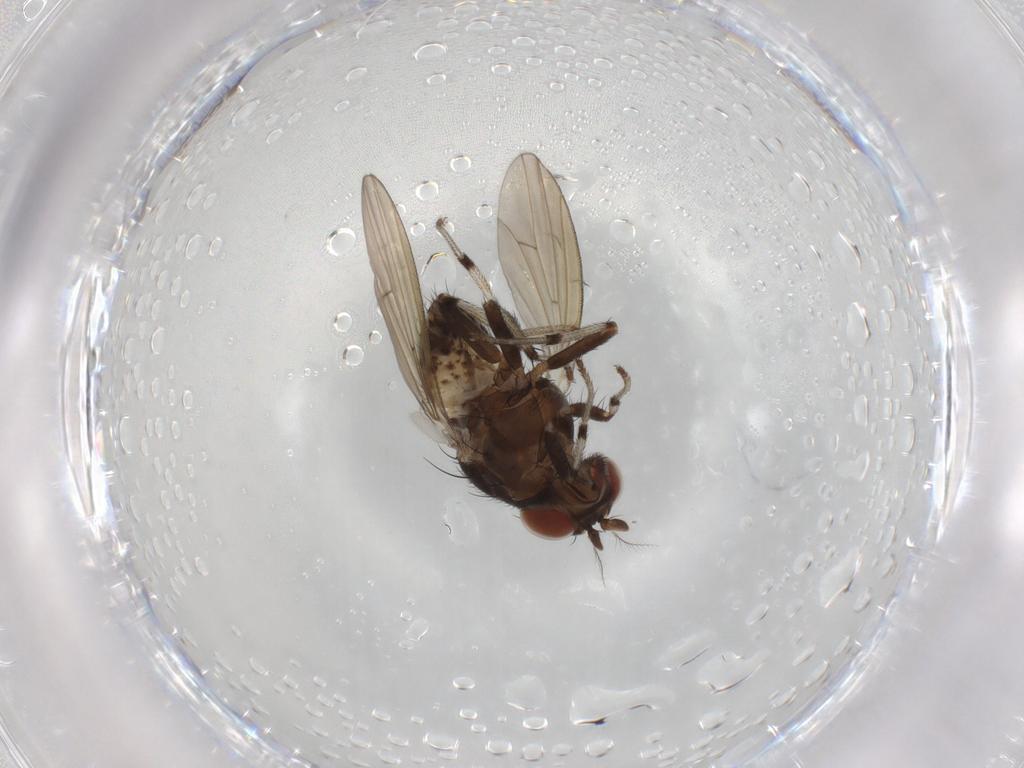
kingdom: Animalia
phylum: Arthropoda
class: Insecta
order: Diptera
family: Tachinidae
